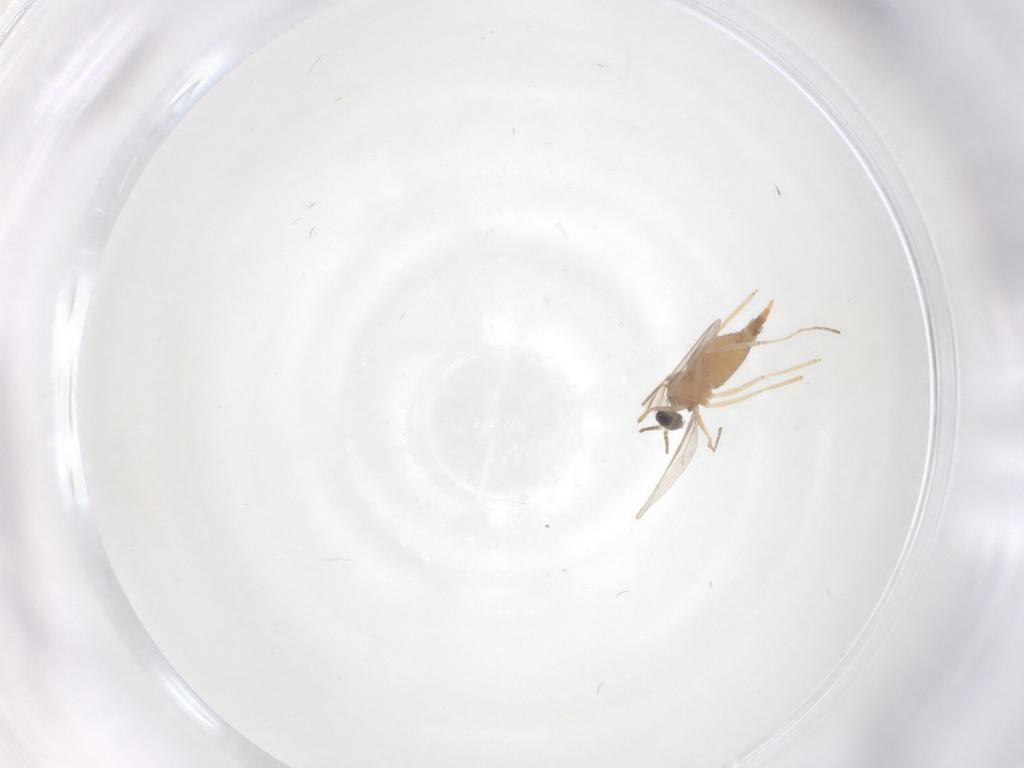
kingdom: Animalia
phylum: Arthropoda
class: Insecta
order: Diptera
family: Cecidomyiidae
